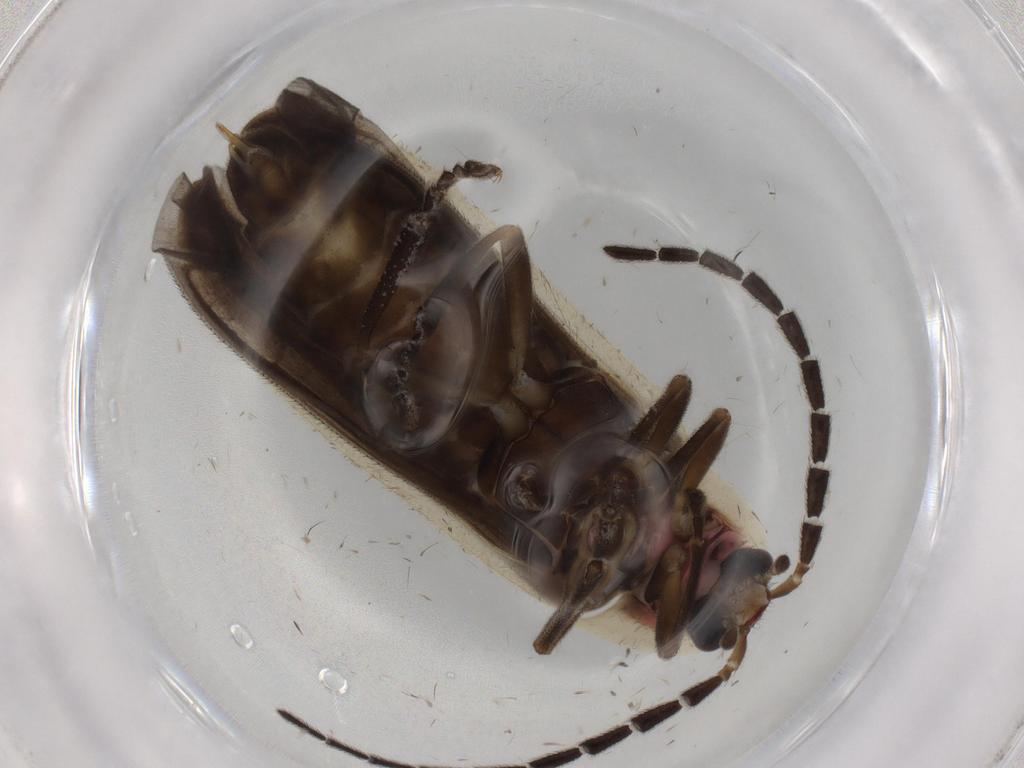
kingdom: Animalia
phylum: Arthropoda
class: Insecta
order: Coleoptera
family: Lampyridae
